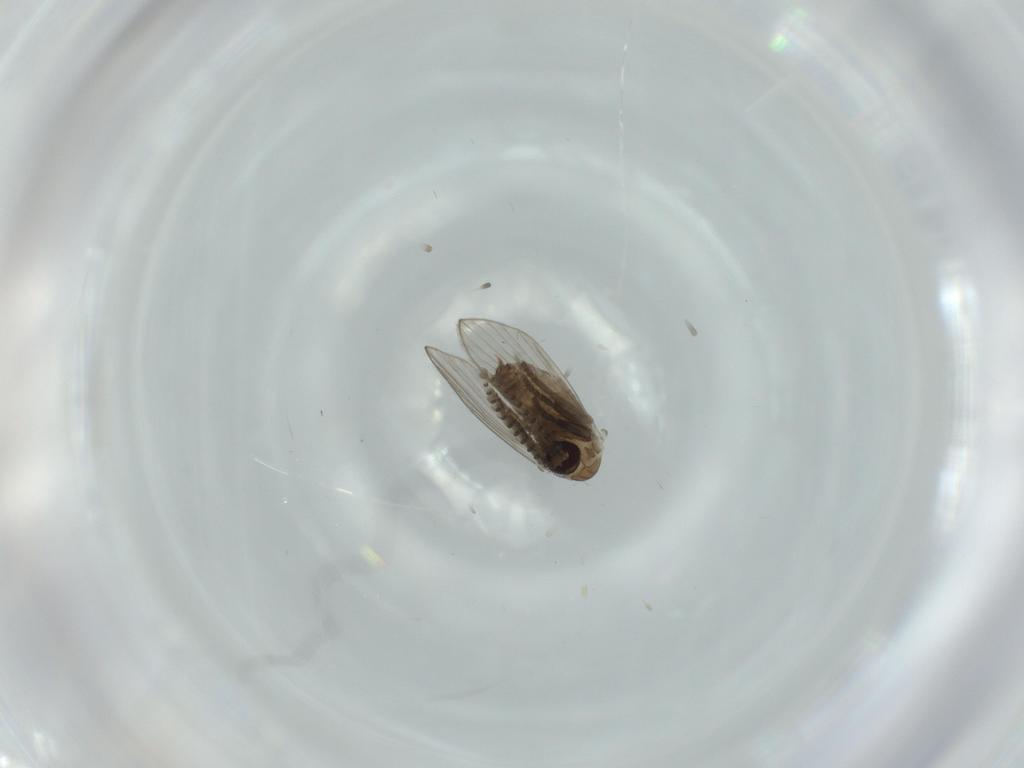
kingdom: Animalia
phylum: Arthropoda
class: Insecta
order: Diptera
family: Psychodidae
